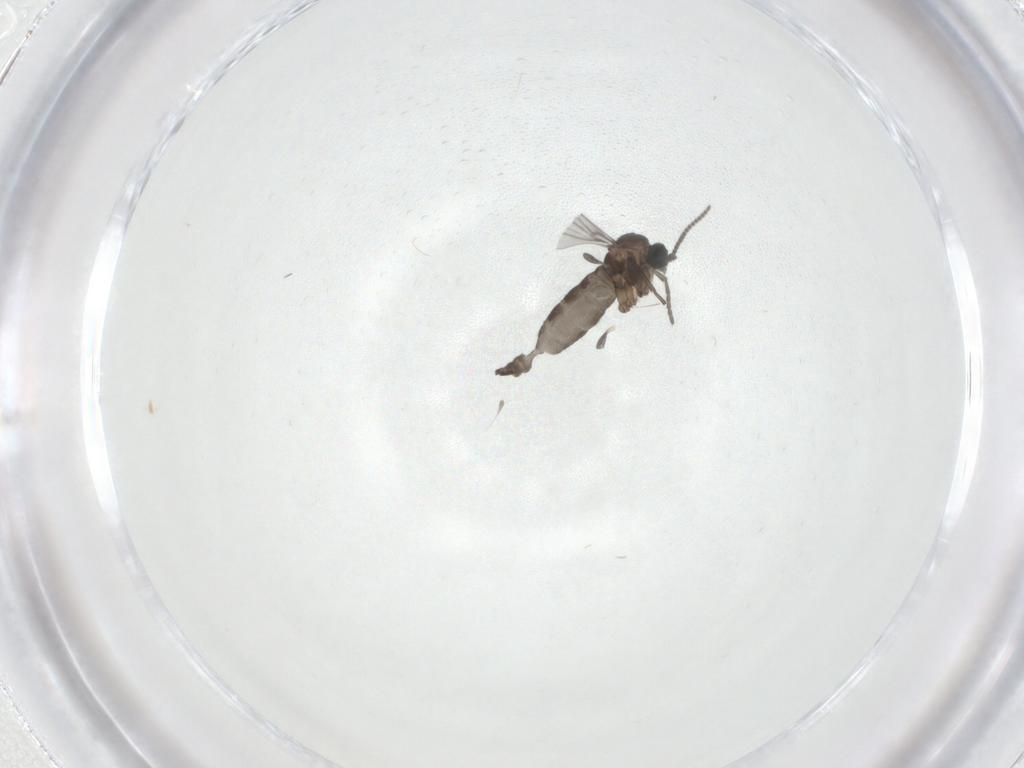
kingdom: Animalia
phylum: Arthropoda
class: Insecta
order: Diptera
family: Sciaridae
